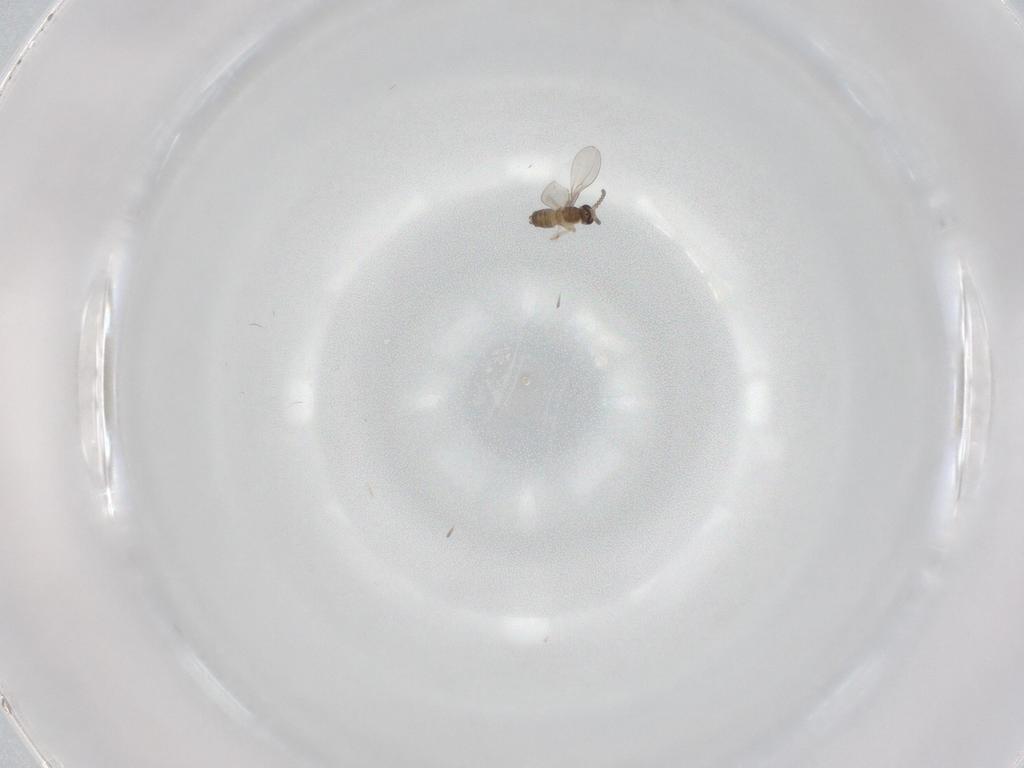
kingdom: Animalia
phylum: Arthropoda
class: Insecta
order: Diptera
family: Cecidomyiidae
